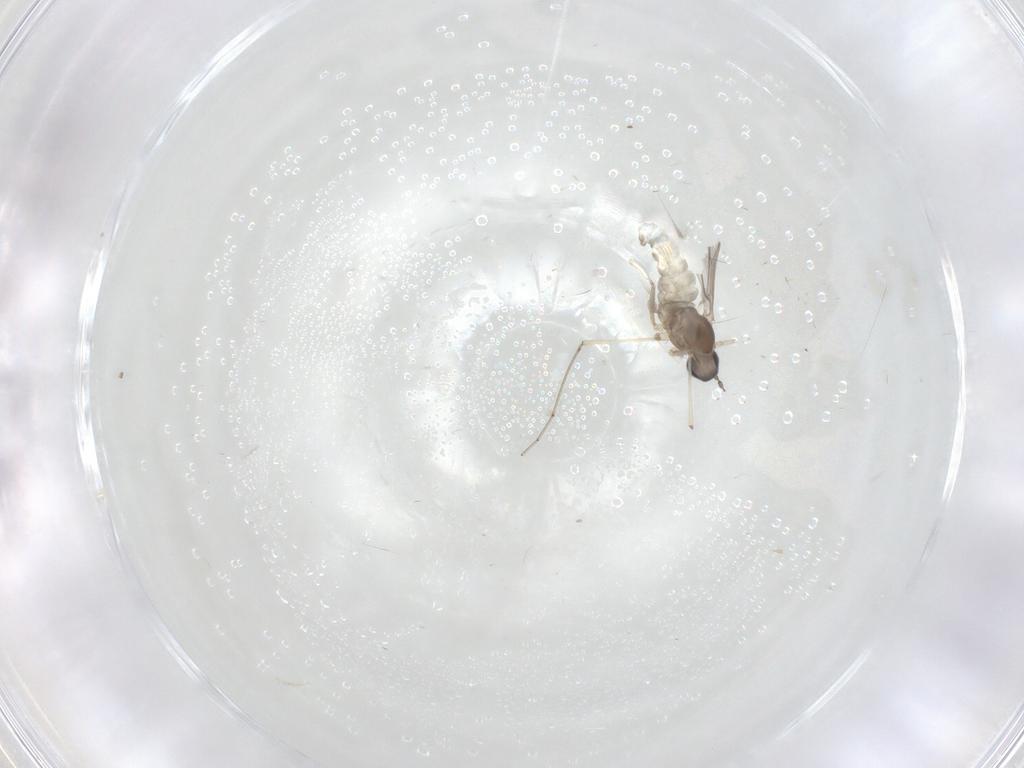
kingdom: Animalia
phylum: Arthropoda
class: Insecta
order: Diptera
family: Cecidomyiidae
